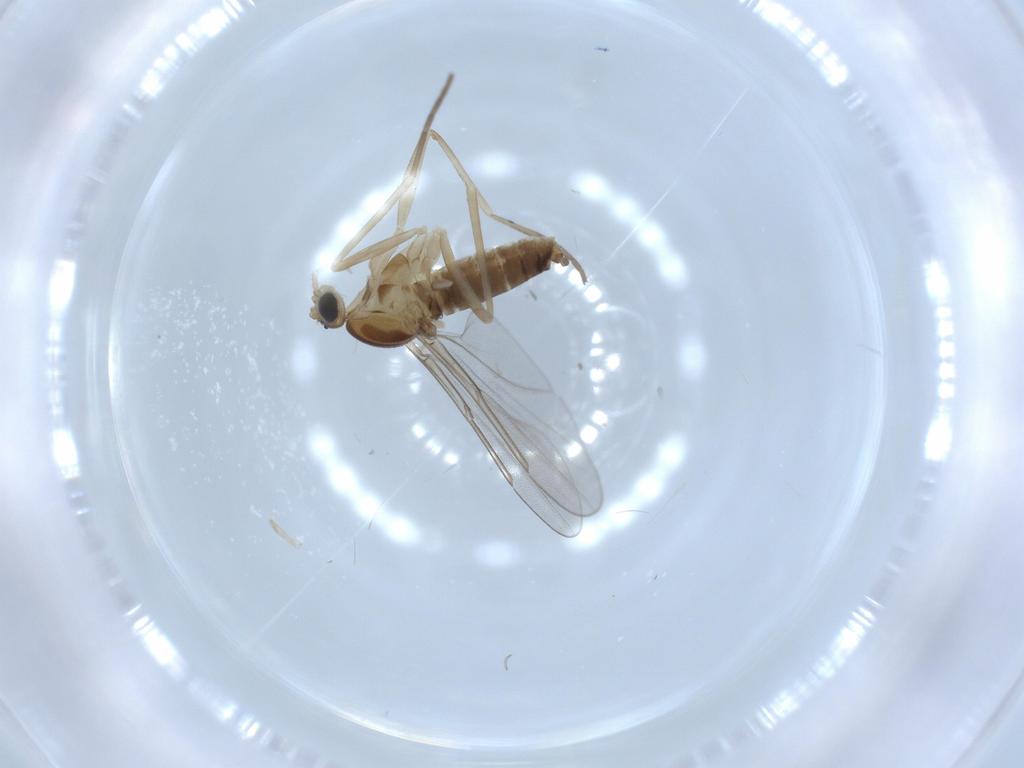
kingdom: Animalia
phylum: Arthropoda
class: Insecta
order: Diptera
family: Cecidomyiidae
